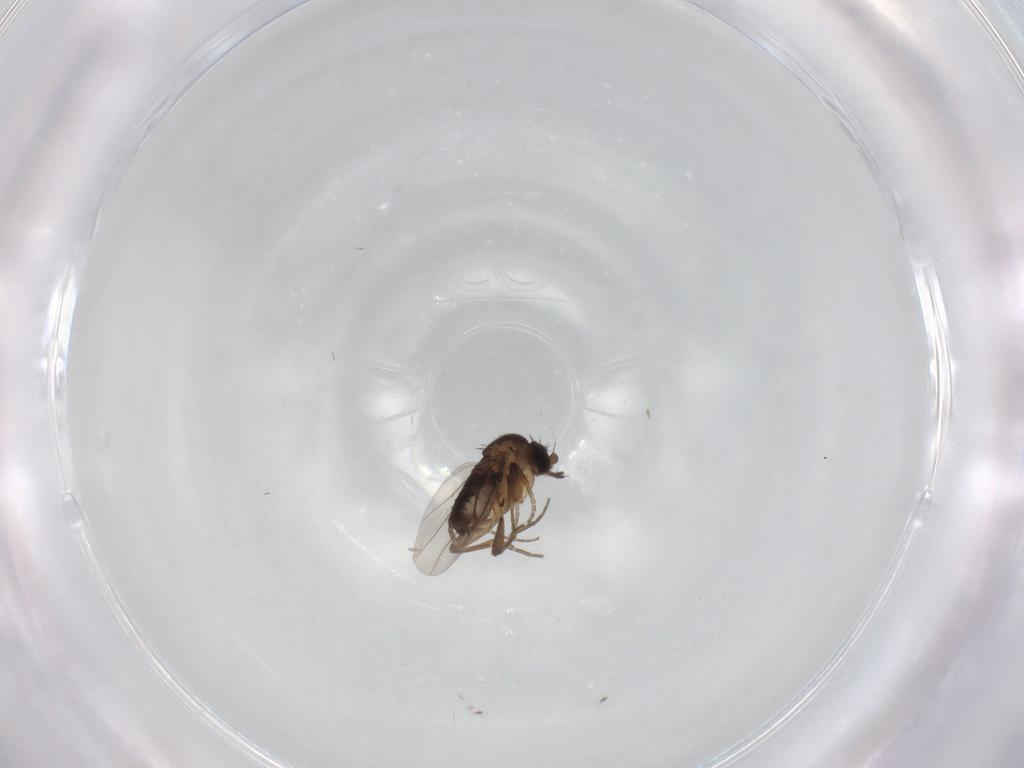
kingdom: Animalia
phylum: Arthropoda
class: Insecta
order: Diptera
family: Phoridae
